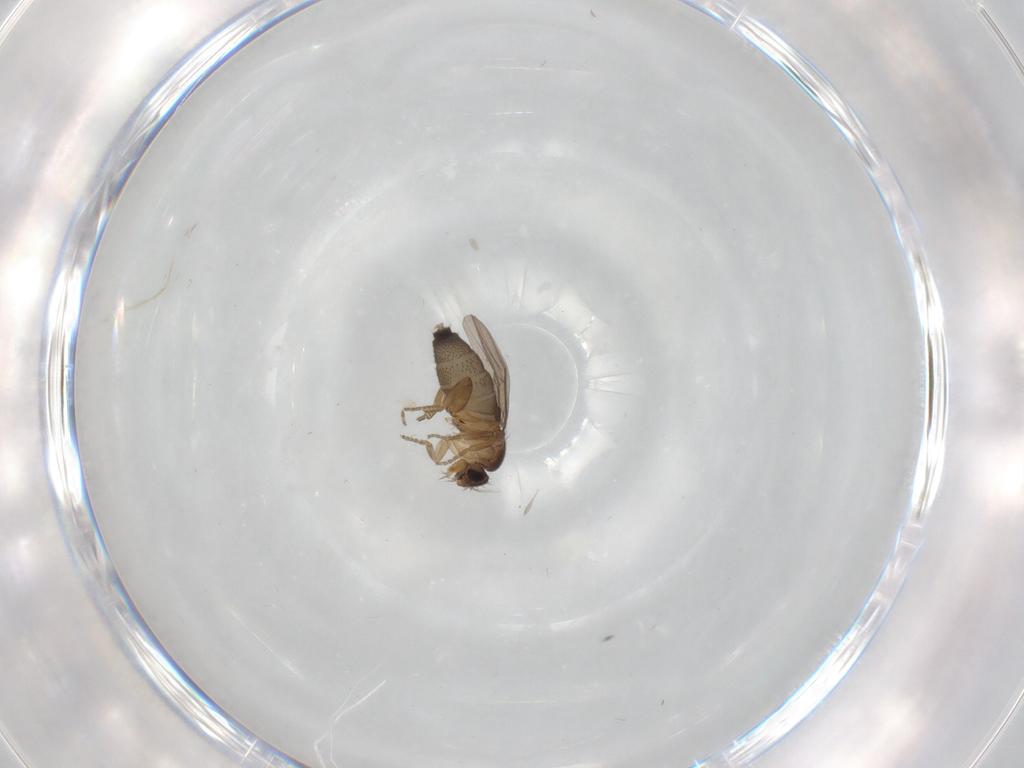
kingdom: Animalia
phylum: Arthropoda
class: Insecta
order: Diptera
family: Phoridae
